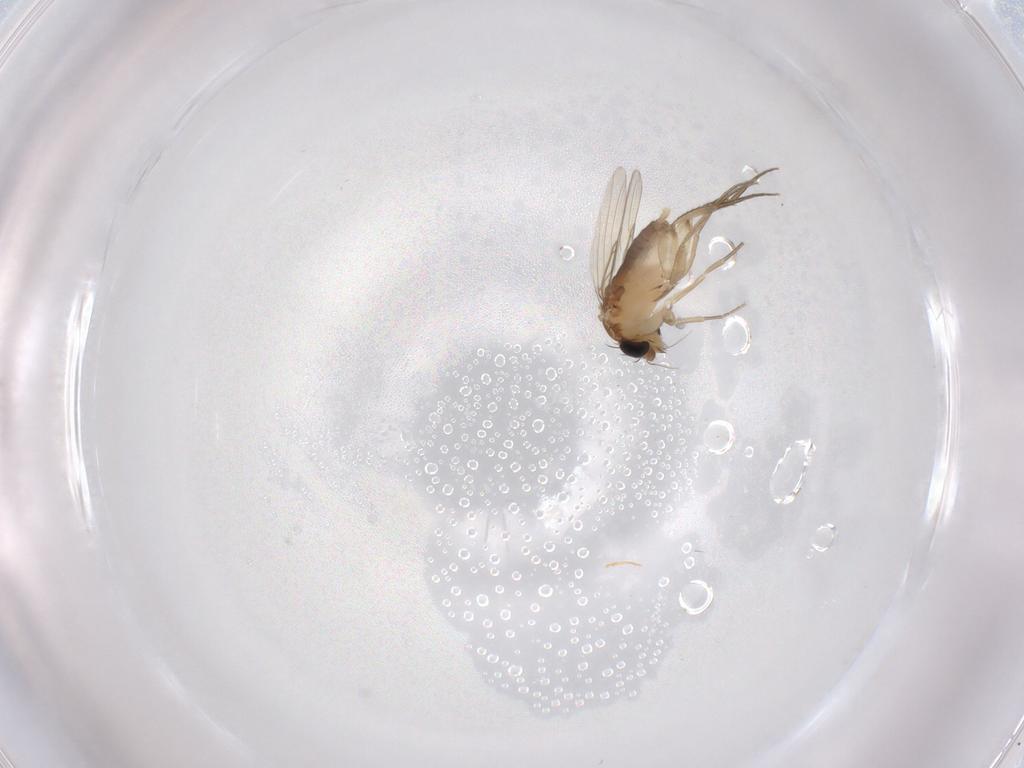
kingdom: Animalia
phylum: Arthropoda
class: Insecta
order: Diptera
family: Phoridae
